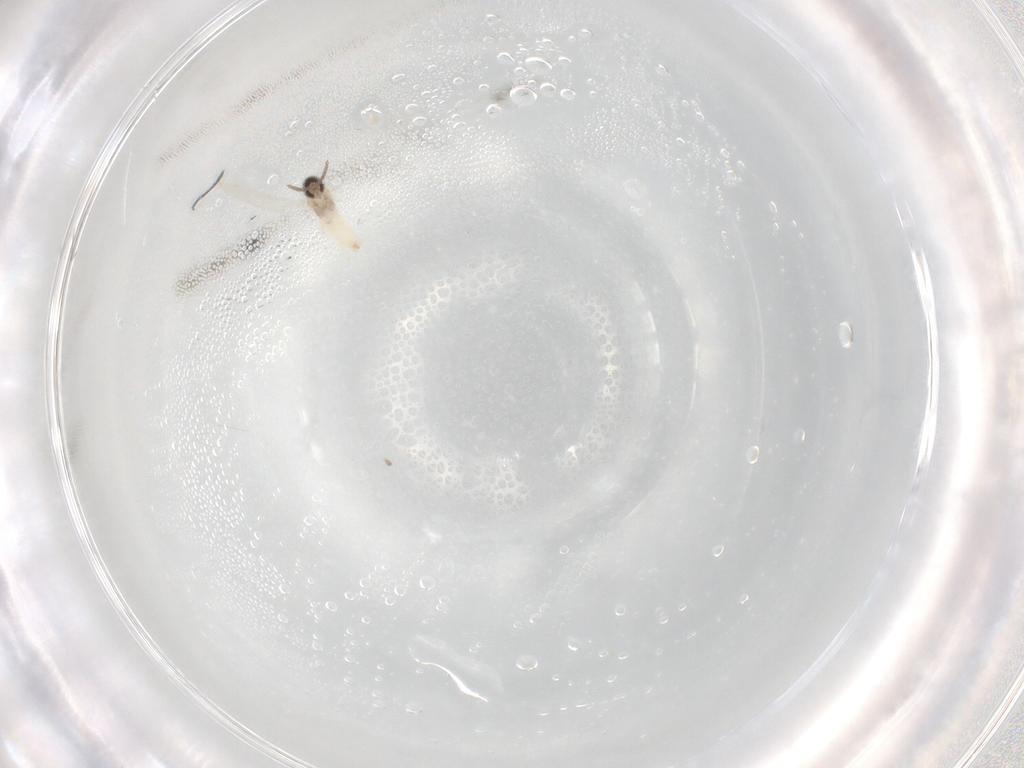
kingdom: Animalia
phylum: Arthropoda
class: Insecta
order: Diptera
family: Cecidomyiidae
